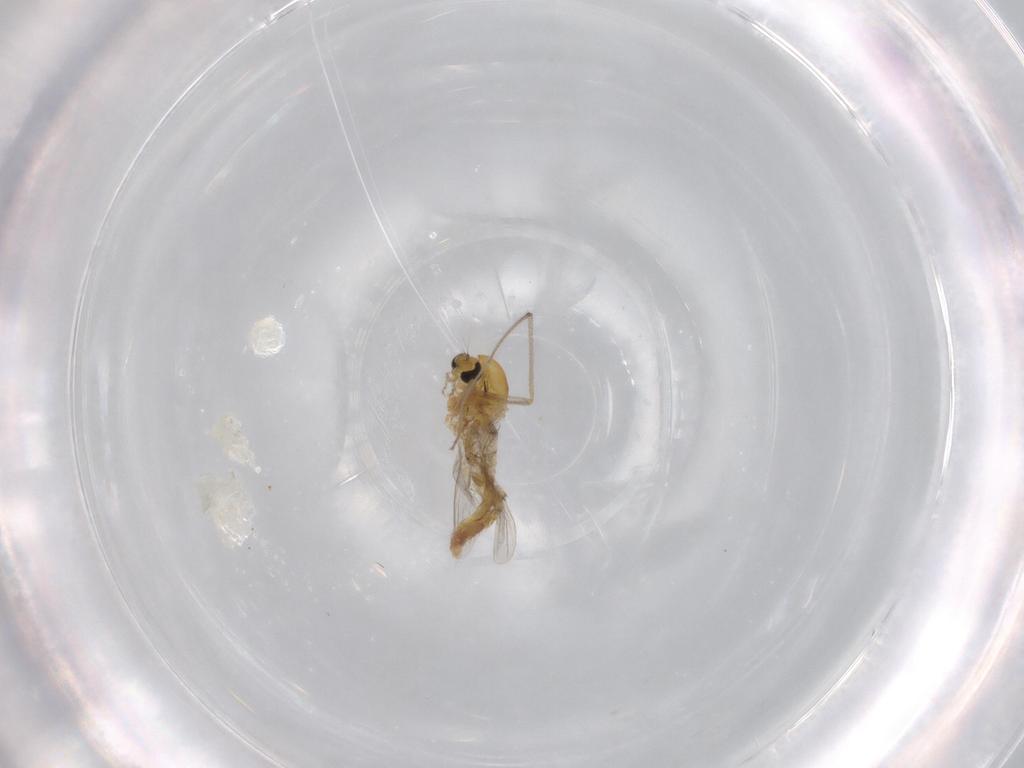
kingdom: Animalia
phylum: Arthropoda
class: Insecta
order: Diptera
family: Chironomidae
